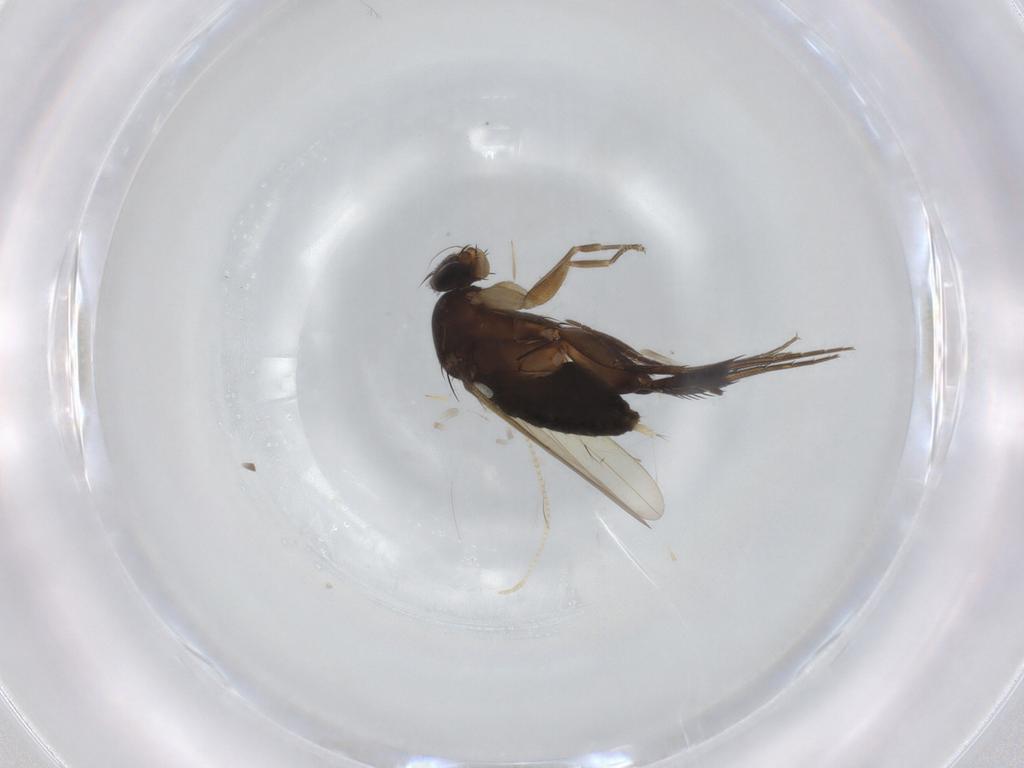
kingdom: Animalia
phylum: Arthropoda
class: Insecta
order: Diptera
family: Phoridae
